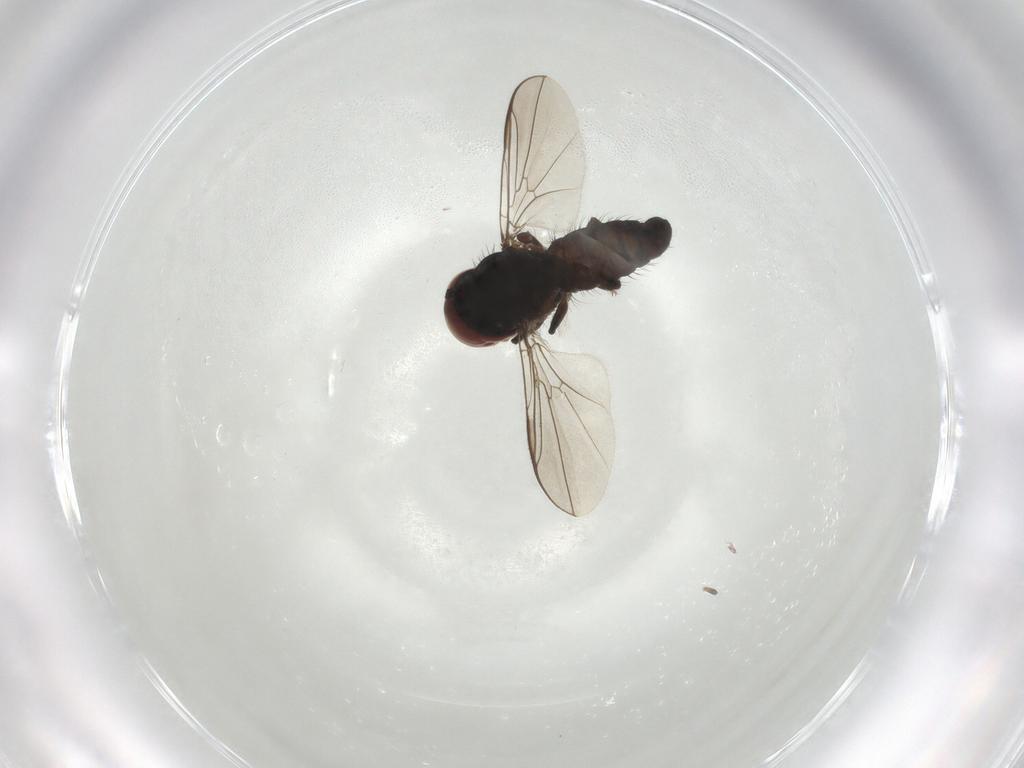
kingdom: Animalia
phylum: Arthropoda
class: Insecta
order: Diptera
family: Pipunculidae
